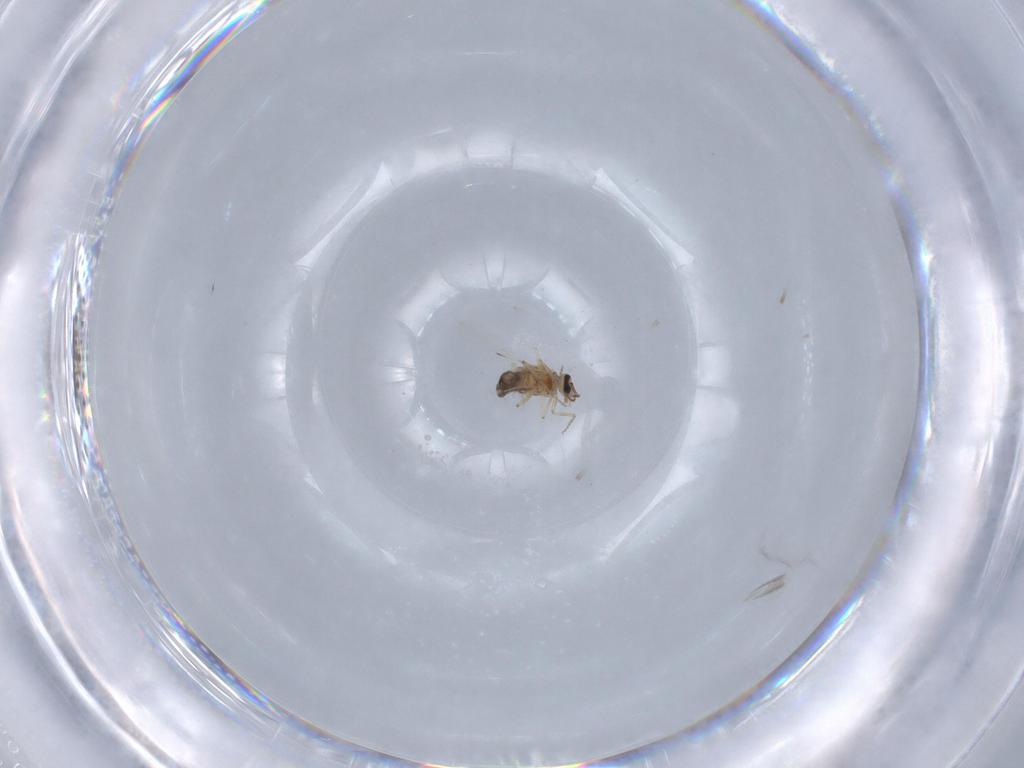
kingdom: Animalia
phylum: Arthropoda
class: Insecta
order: Diptera
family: Ceratopogonidae
